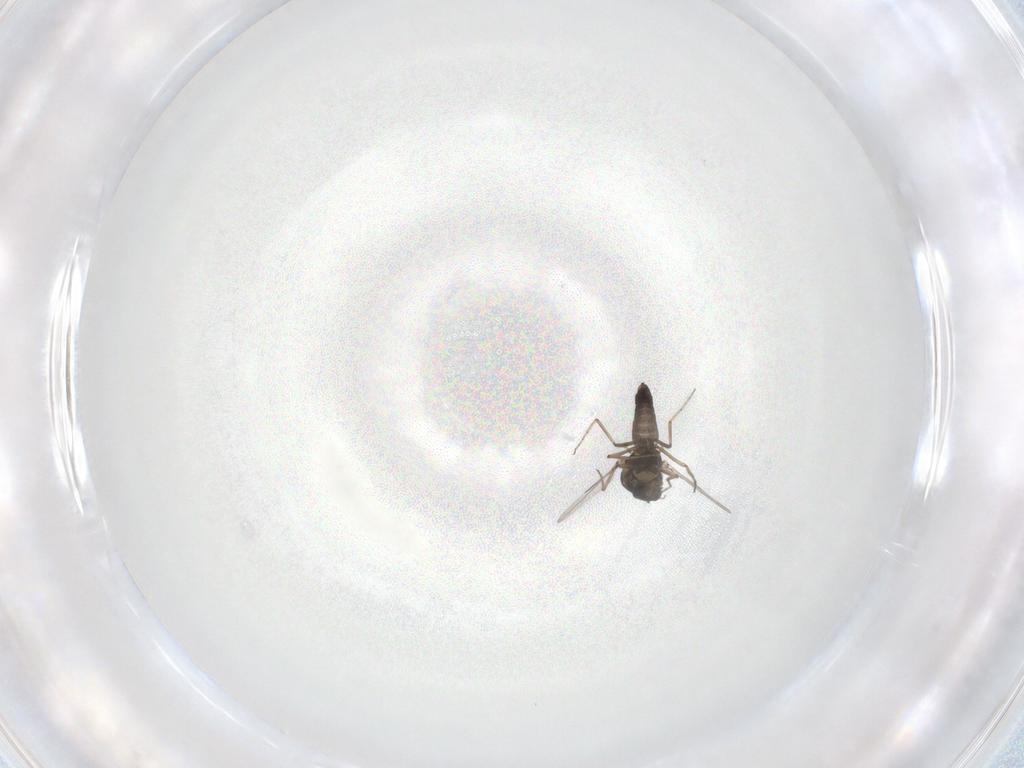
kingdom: Animalia
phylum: Arthropoda
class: Insecta
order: Diptera
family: Ceratopogonidae
